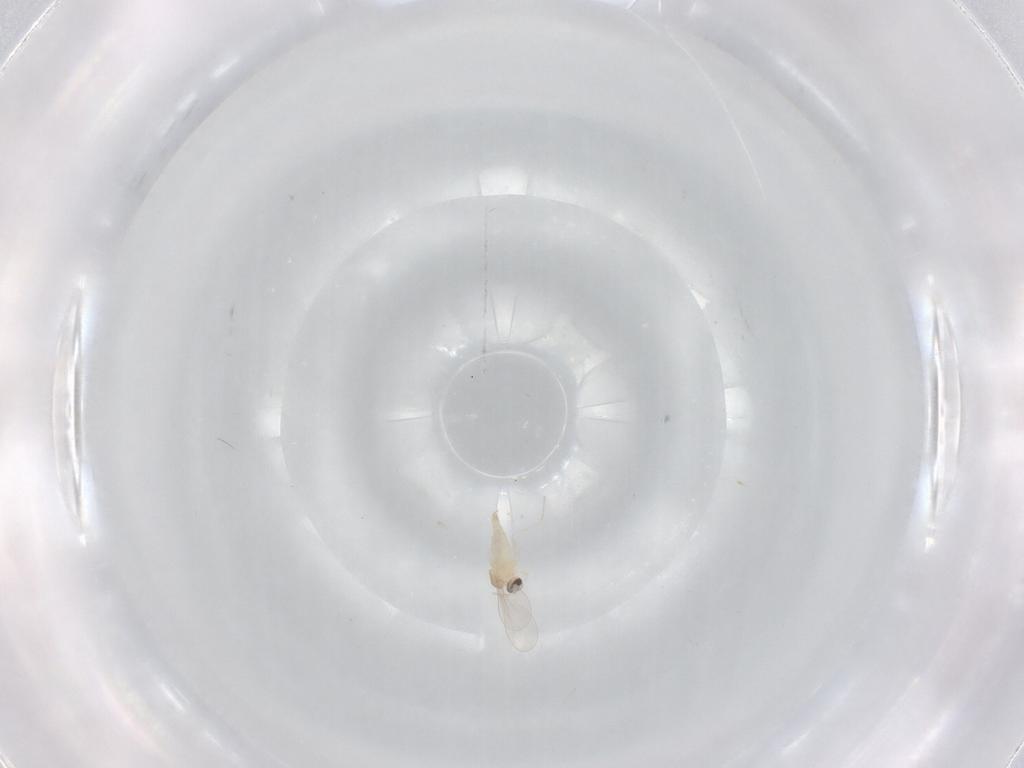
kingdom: Animalia
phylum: Arthropoda
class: Insecta
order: Diptera
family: Cecidomyiidae
